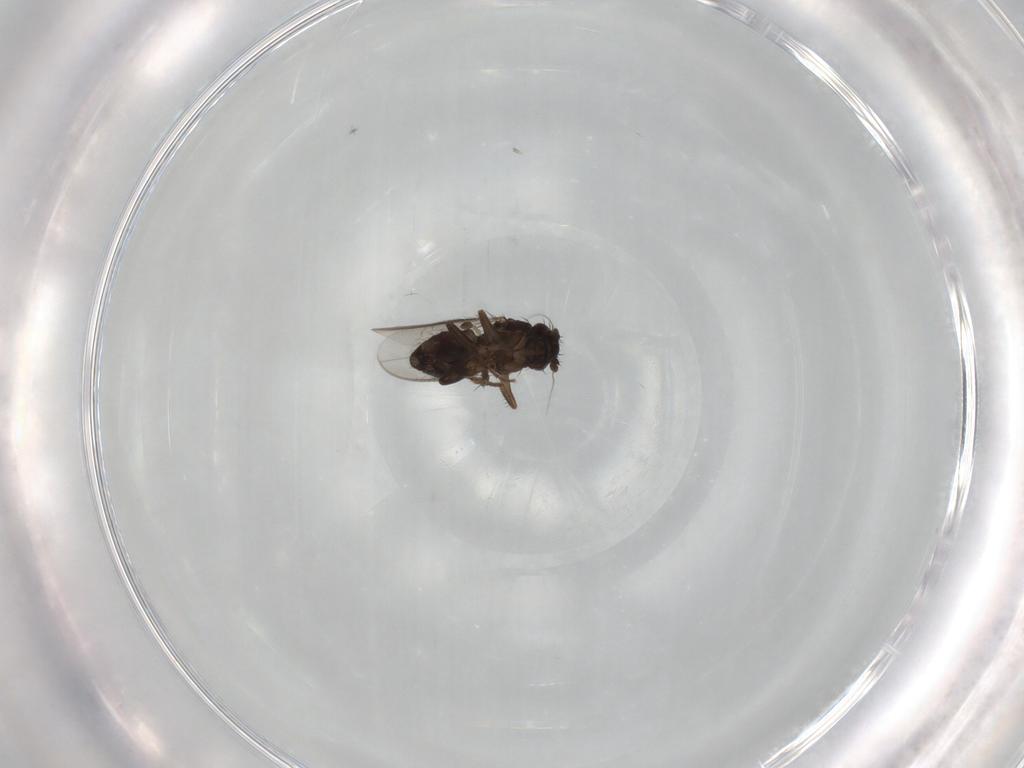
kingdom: Animalia
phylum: Arthropoda
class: Insecta
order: Diptera
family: Sphaeroceridae
